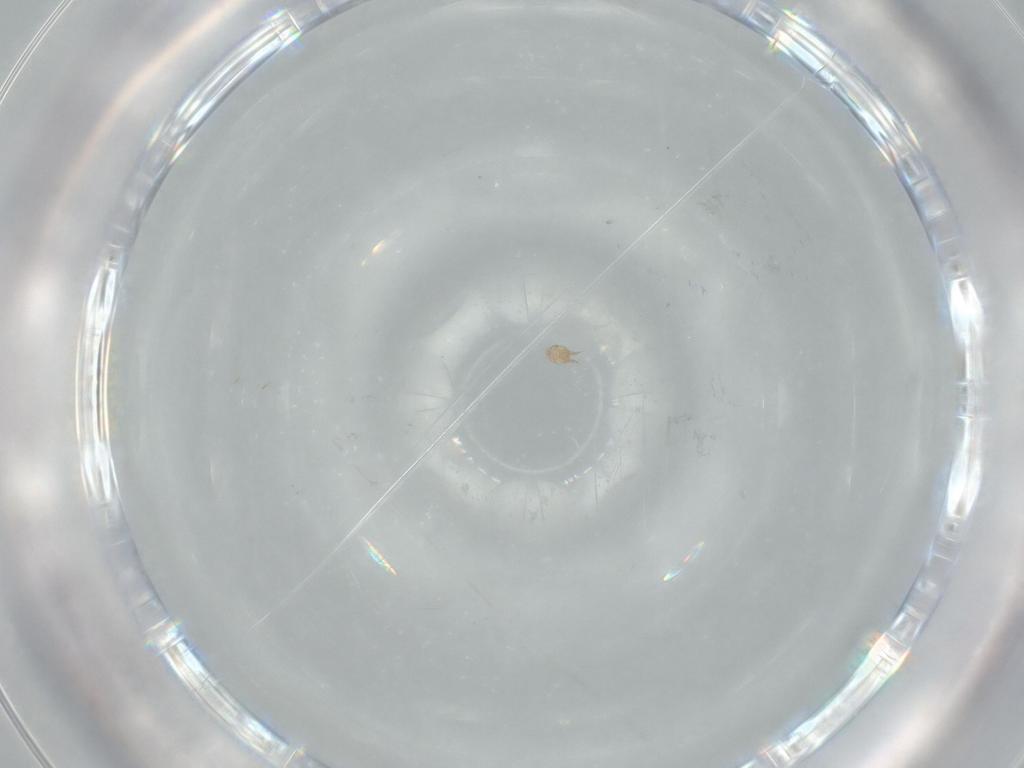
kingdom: Animalia
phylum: Arthropoda
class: Arachnida
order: Trombidiformes
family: Anystidae
